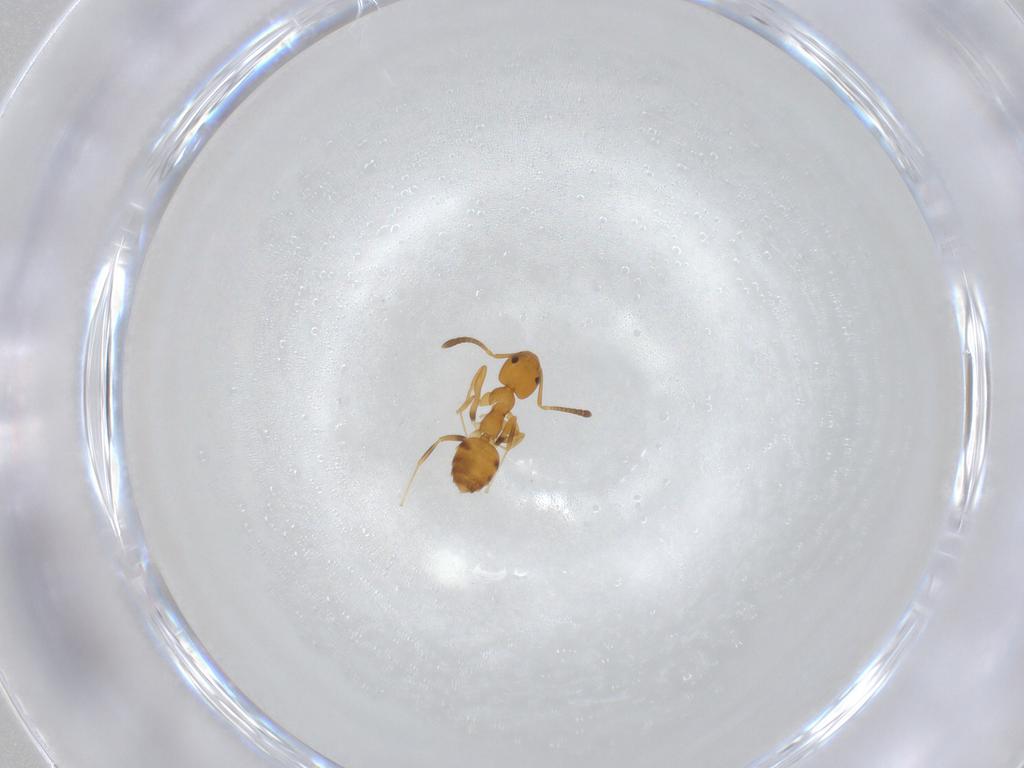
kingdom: Animalia
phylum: Arthropoda
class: Insecta
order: Hymenoptera
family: Formicidae
